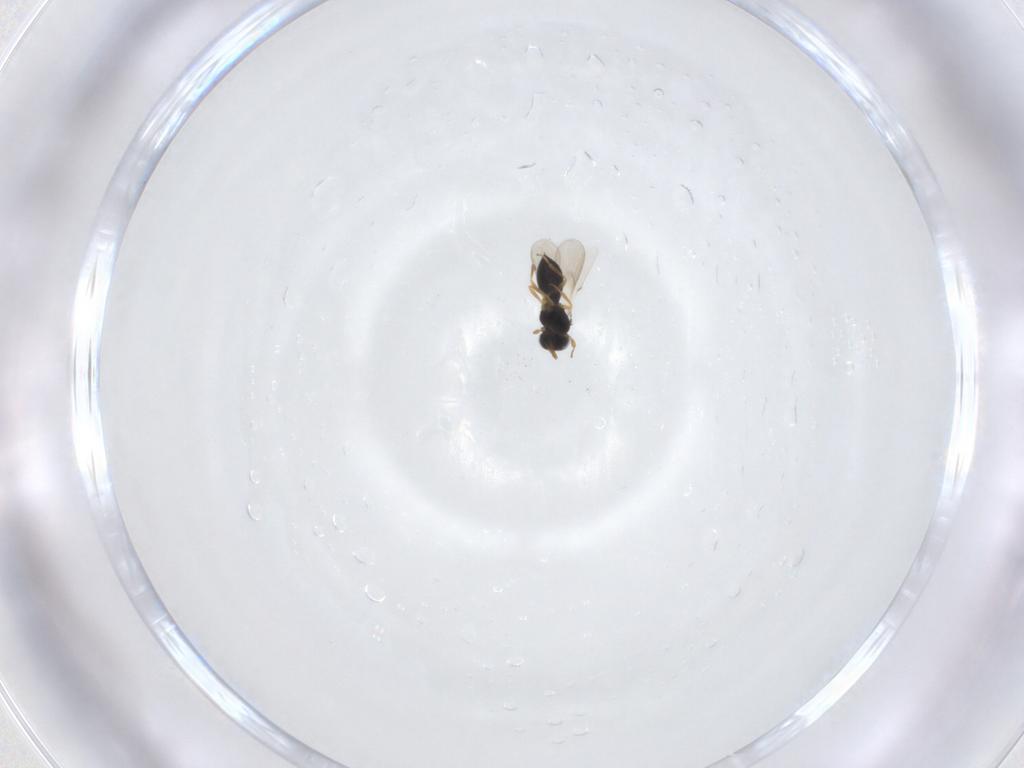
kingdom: Animalia
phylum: Arthropoda
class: Insecta
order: Hymenoptera
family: Scelionidae
